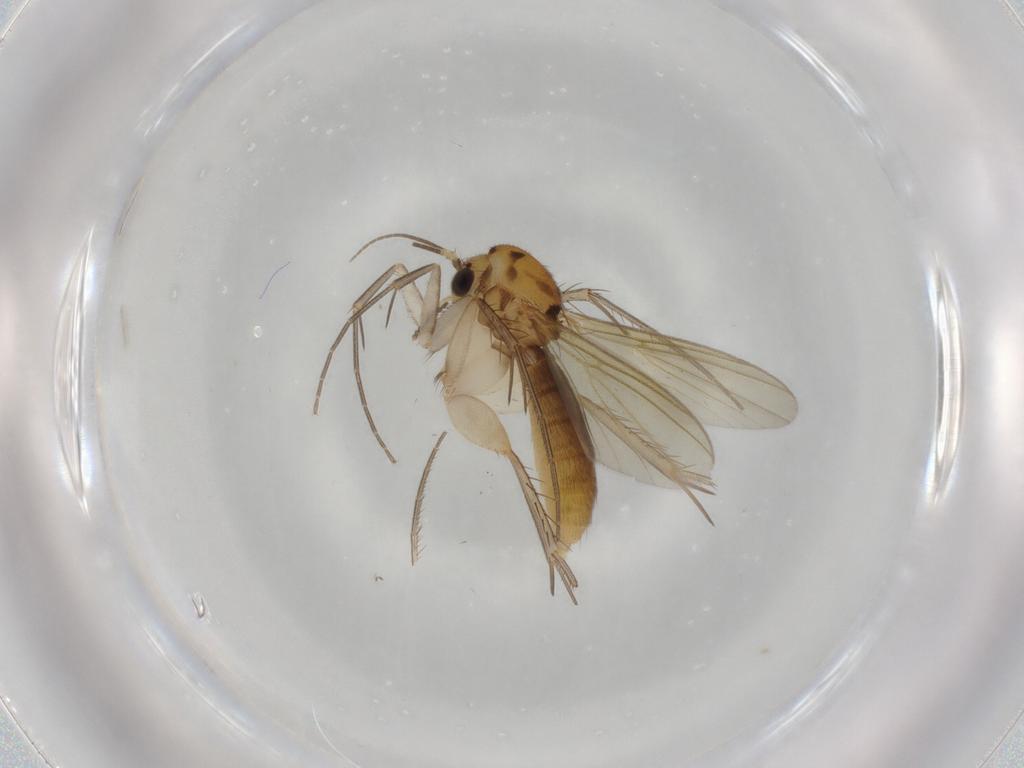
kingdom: Animalia
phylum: Arthropoda
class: Insecta
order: Diptera
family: Mycetophilidae
